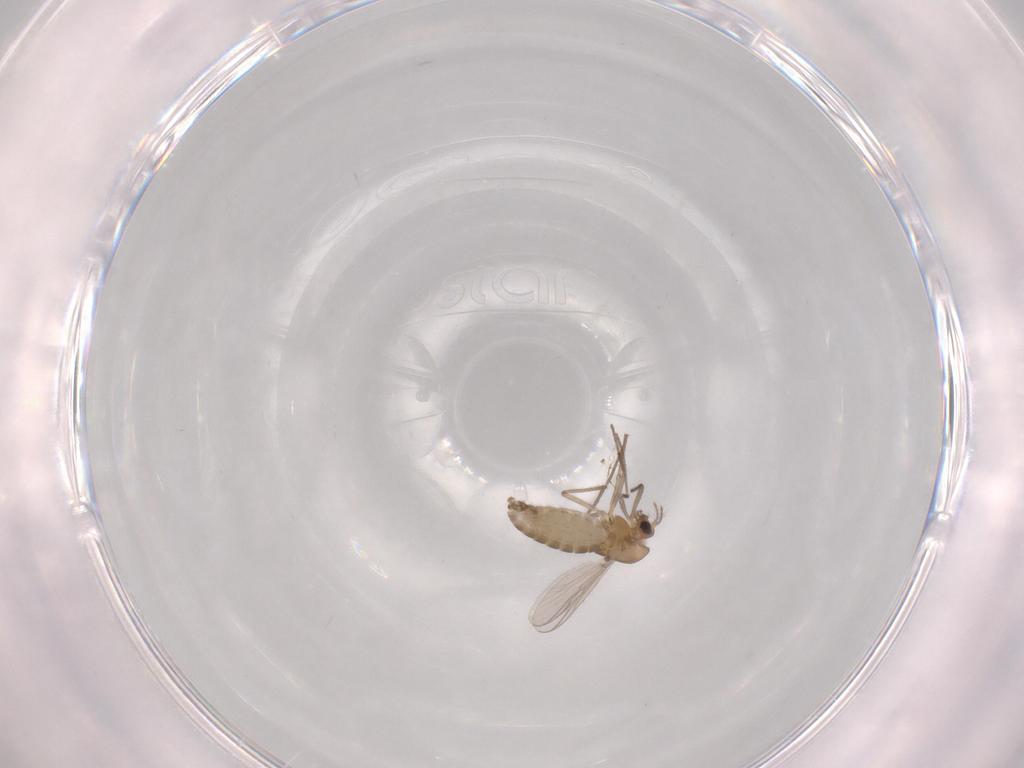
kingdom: Animalia
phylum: Arthropoda
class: Insecta
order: Diptera
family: Chironomidae
